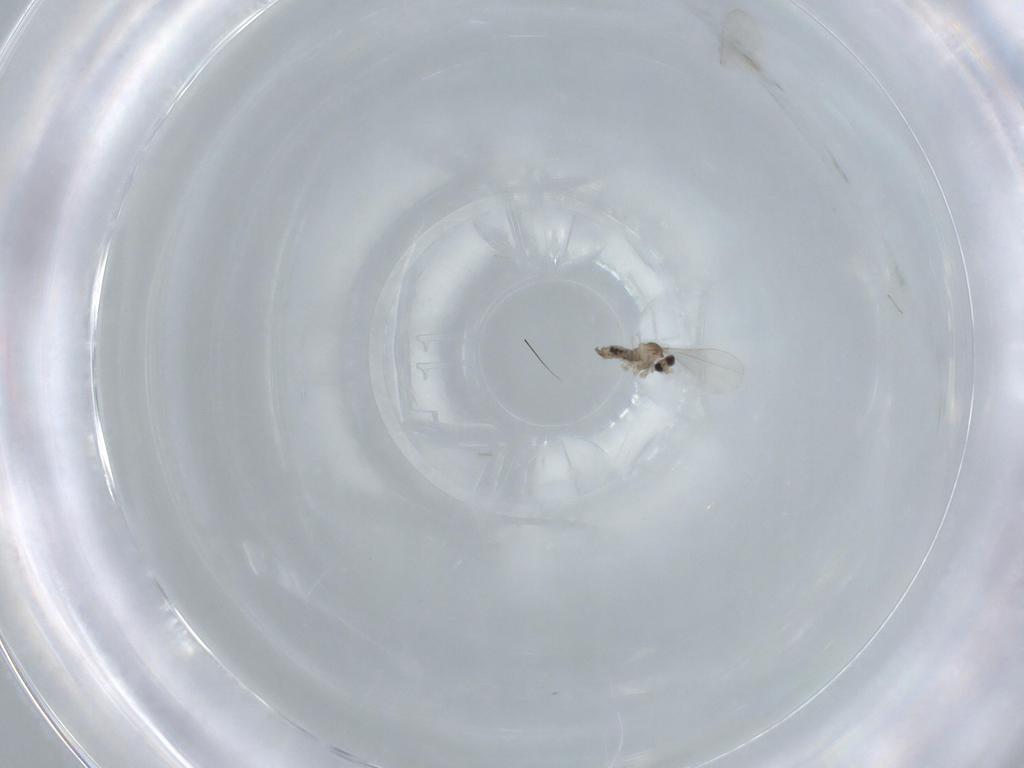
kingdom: Animalia
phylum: Arthropoda
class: Insecta
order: Diptera
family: Cecidomyiidae
